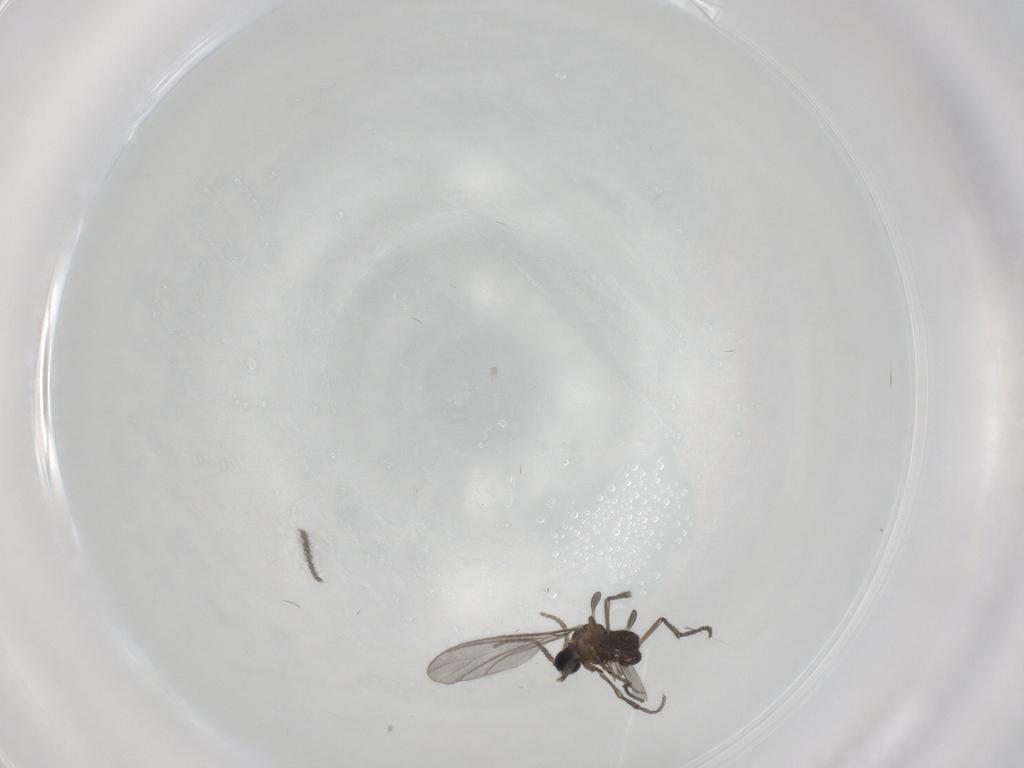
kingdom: Animalia
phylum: Arthropoda
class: Insecta
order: Diptera
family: Sciaridae
